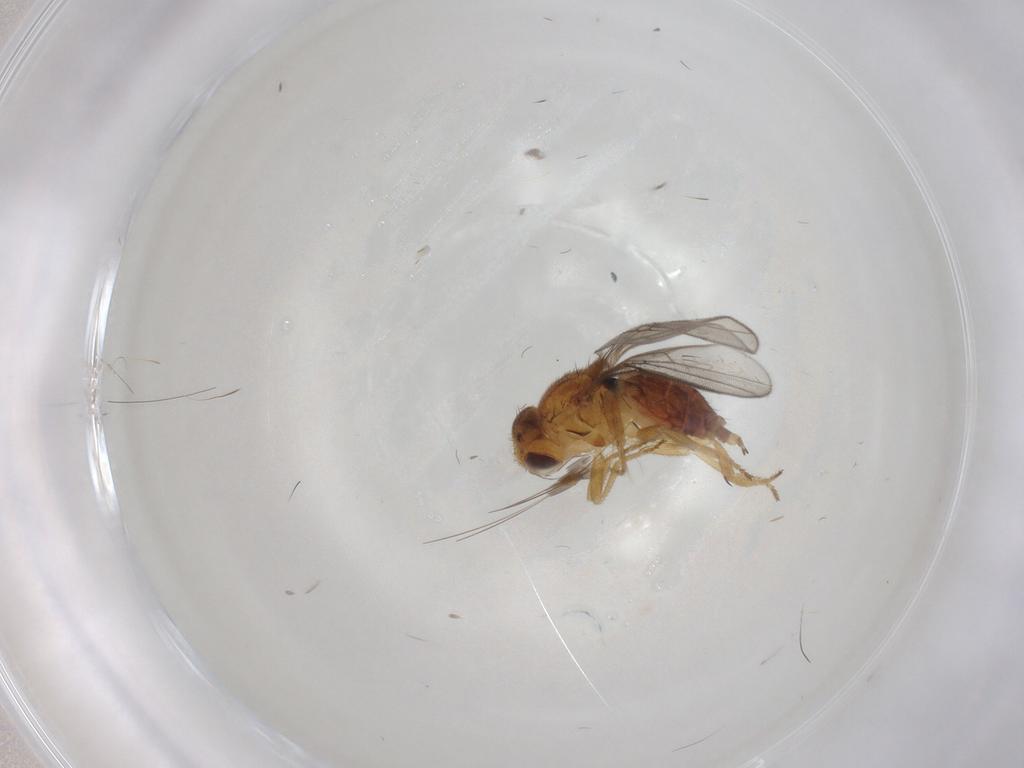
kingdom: Animalia
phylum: Arthropoda
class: Insecta
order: Diptera
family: Chloropidae
